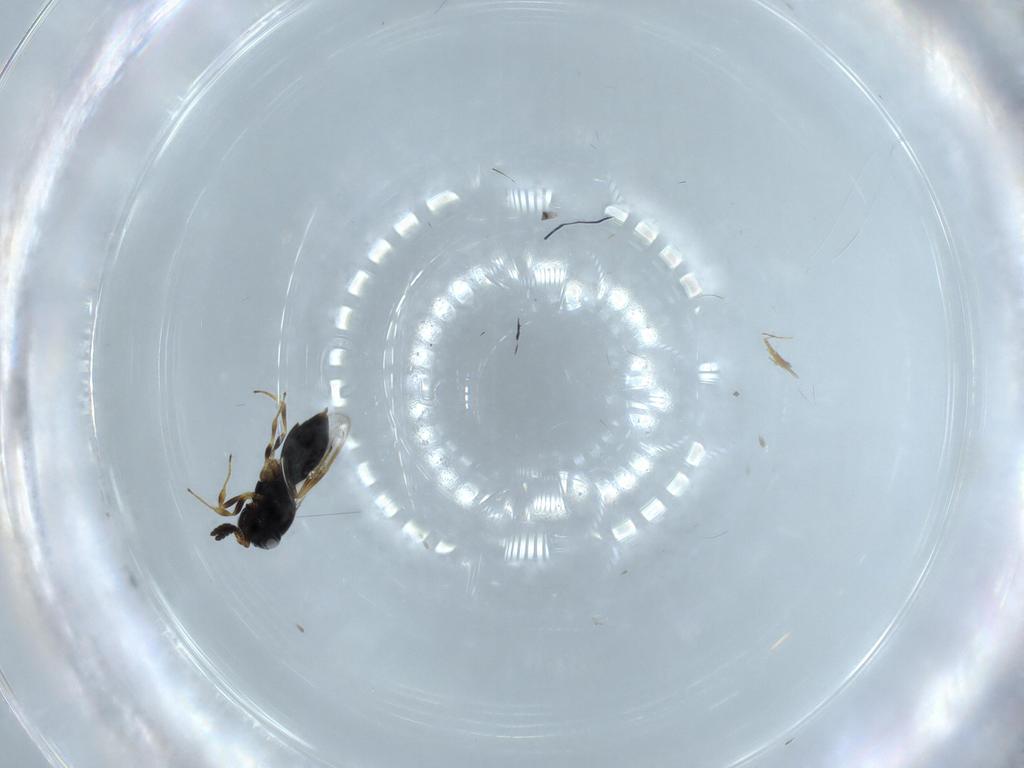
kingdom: Animalia
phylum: Arthropoda
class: Insecta
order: Hymenoptera
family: Scelionidae
